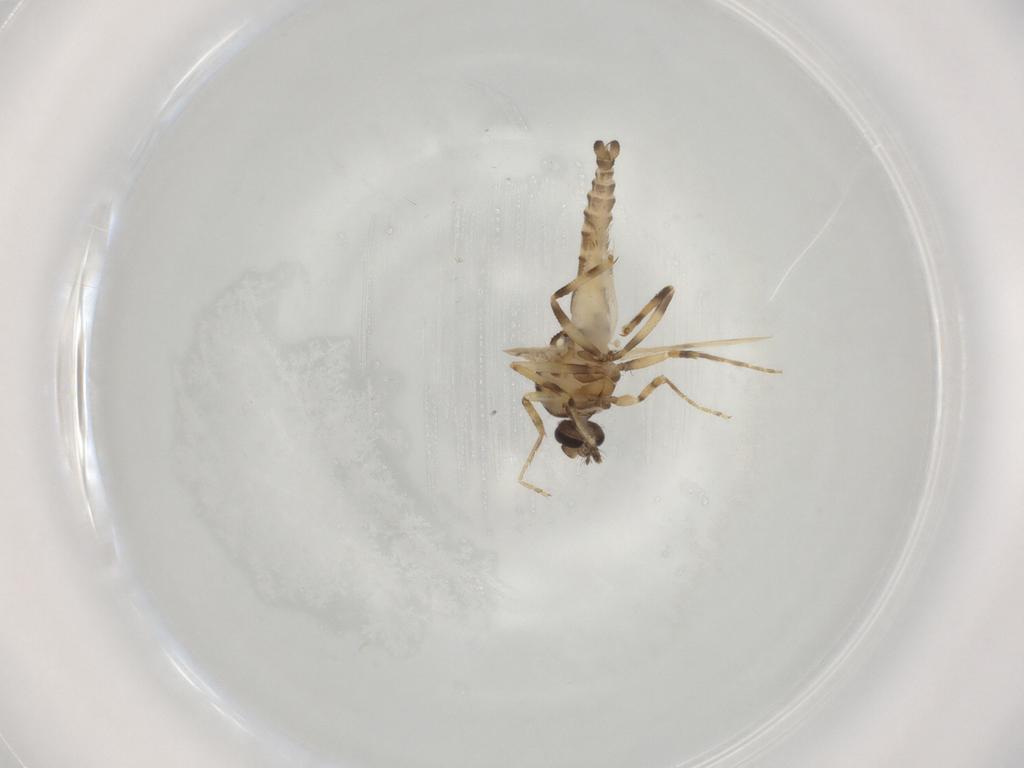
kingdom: Animalia
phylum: Arthropoda
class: Insecta
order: Diptera
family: Ceratopogonidae
